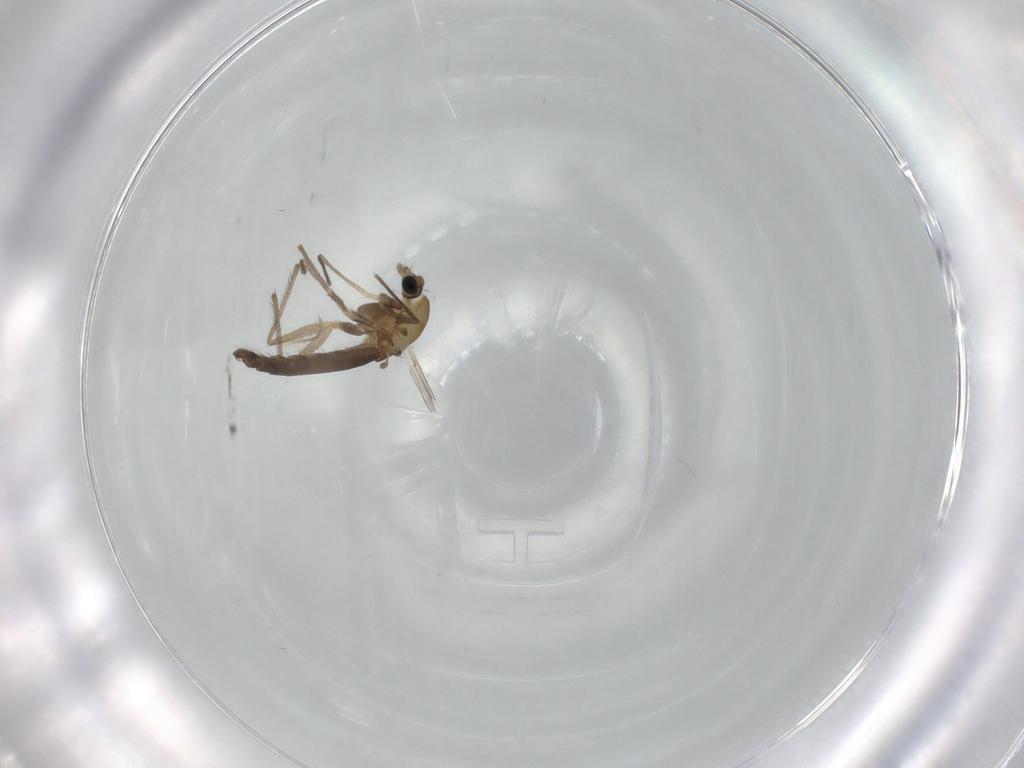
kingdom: Animalia
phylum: Arthropoda
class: Insecta
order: Diptera
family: Chironomidae
